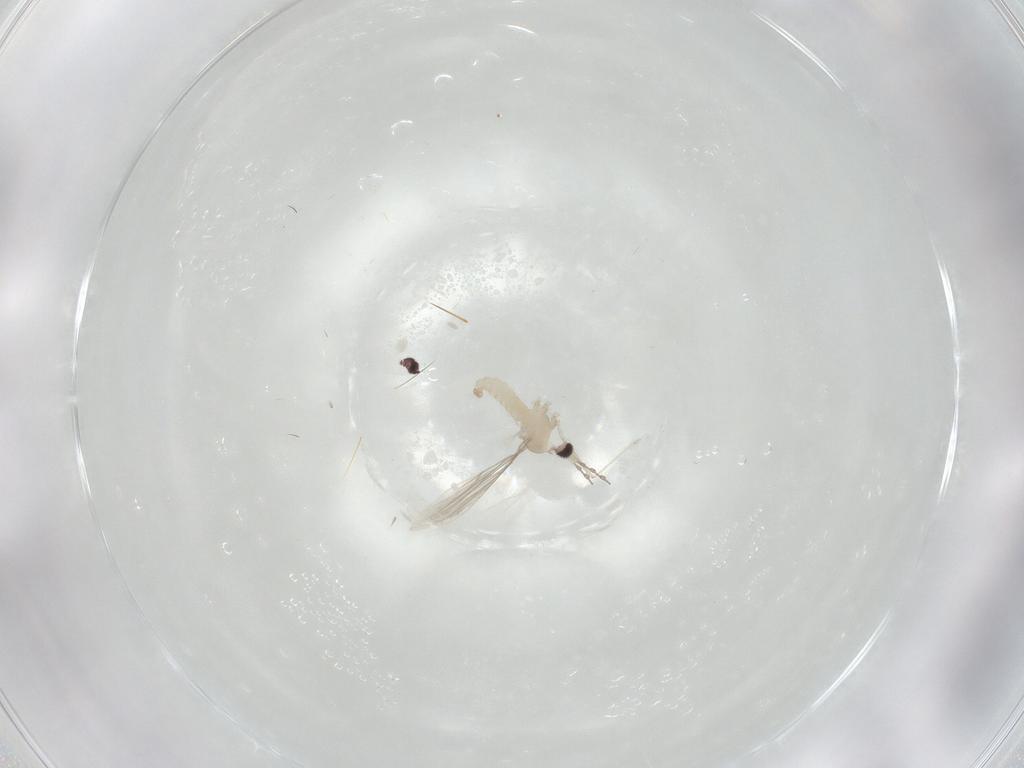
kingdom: Animalia
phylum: Arthropoda
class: Insecta
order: Diptera
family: Cecidomyiidae
